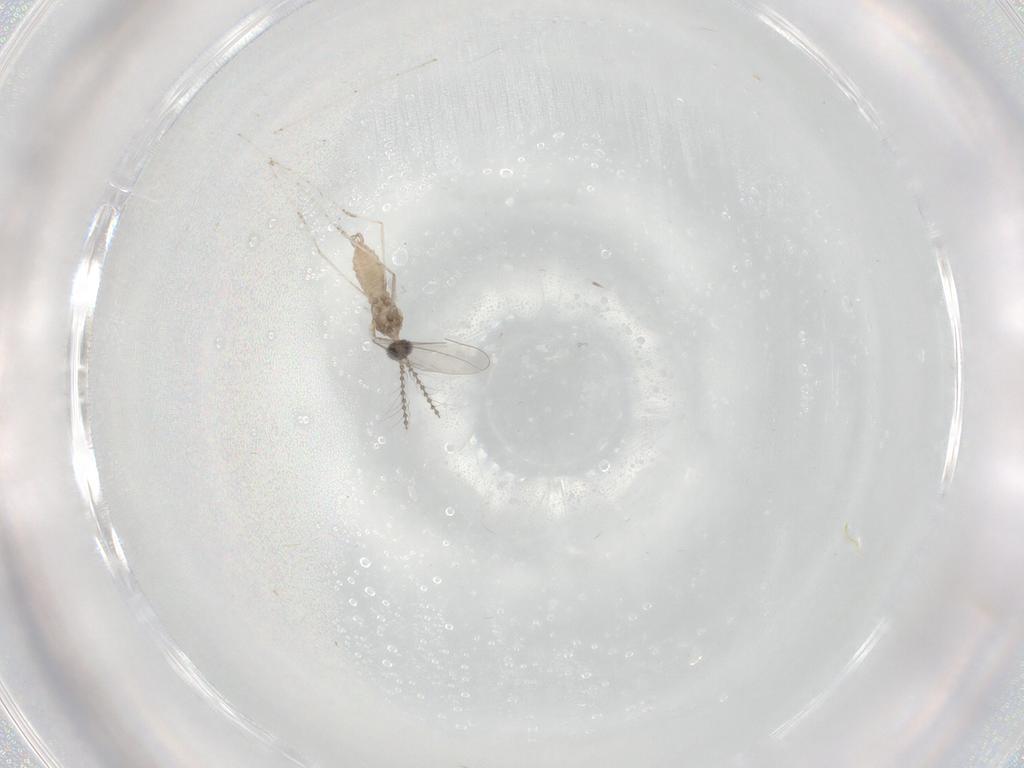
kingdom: Animalia
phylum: Arthropoda
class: Insecta
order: Diptera
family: Cecidomyiidae
